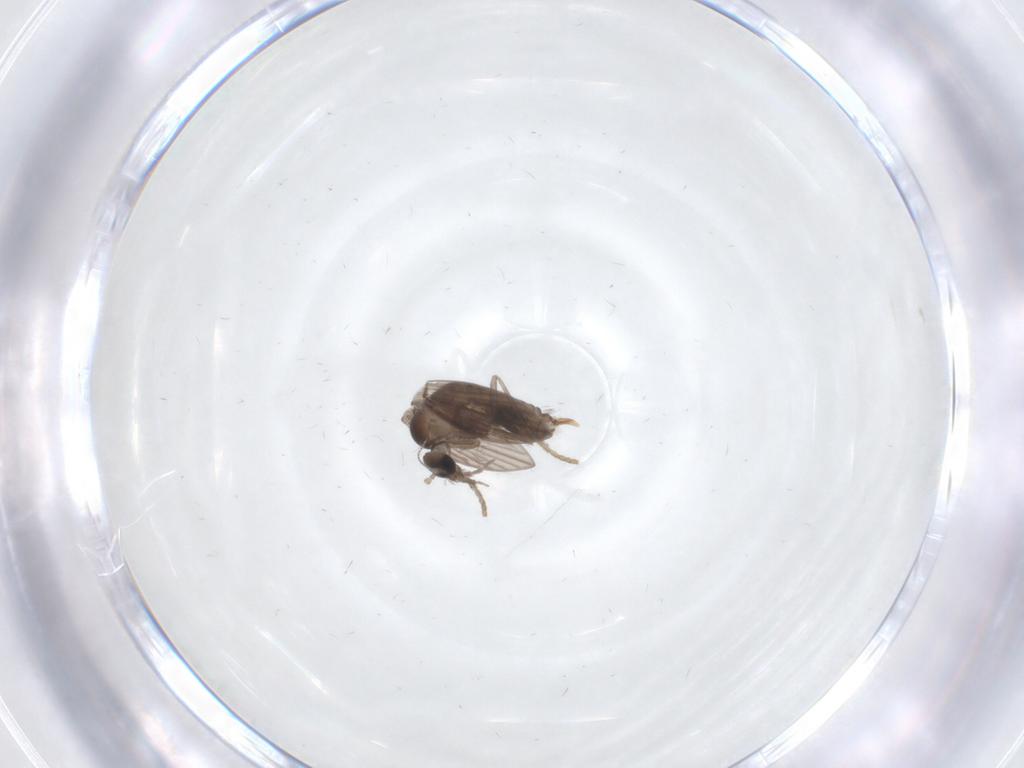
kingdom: Animalia
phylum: Arthropoda
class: Insecta
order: Diptera
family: Psychodidae
